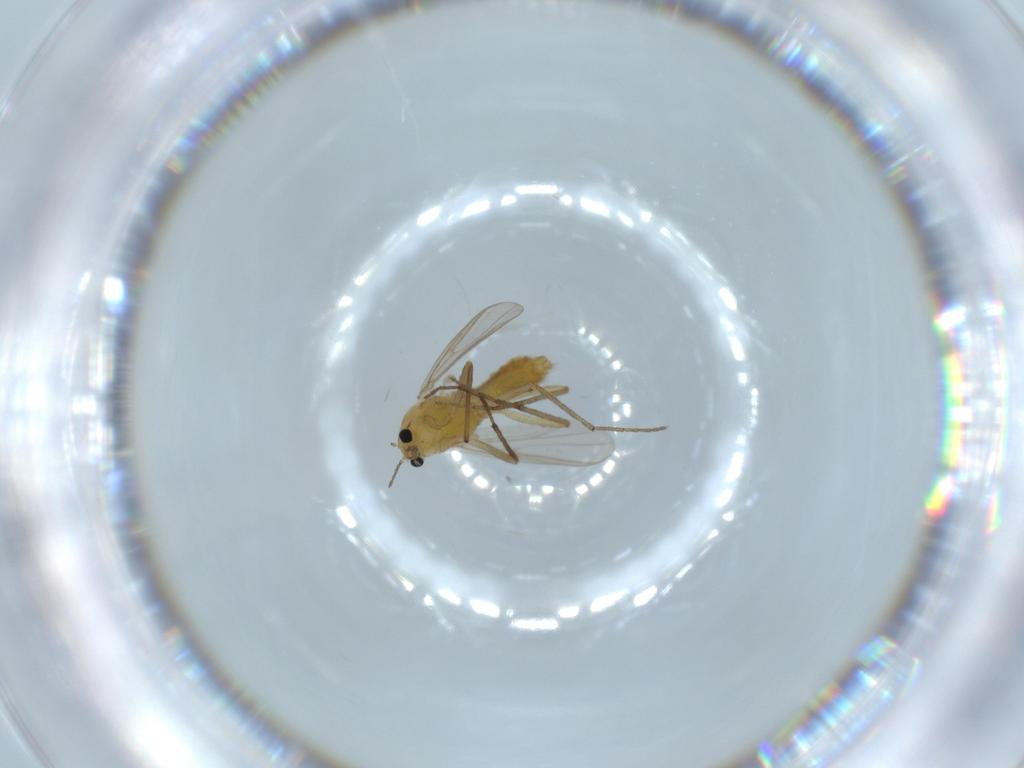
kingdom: Animalia
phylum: Arthropoda
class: Insecta
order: Diptera
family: Chironomidae
